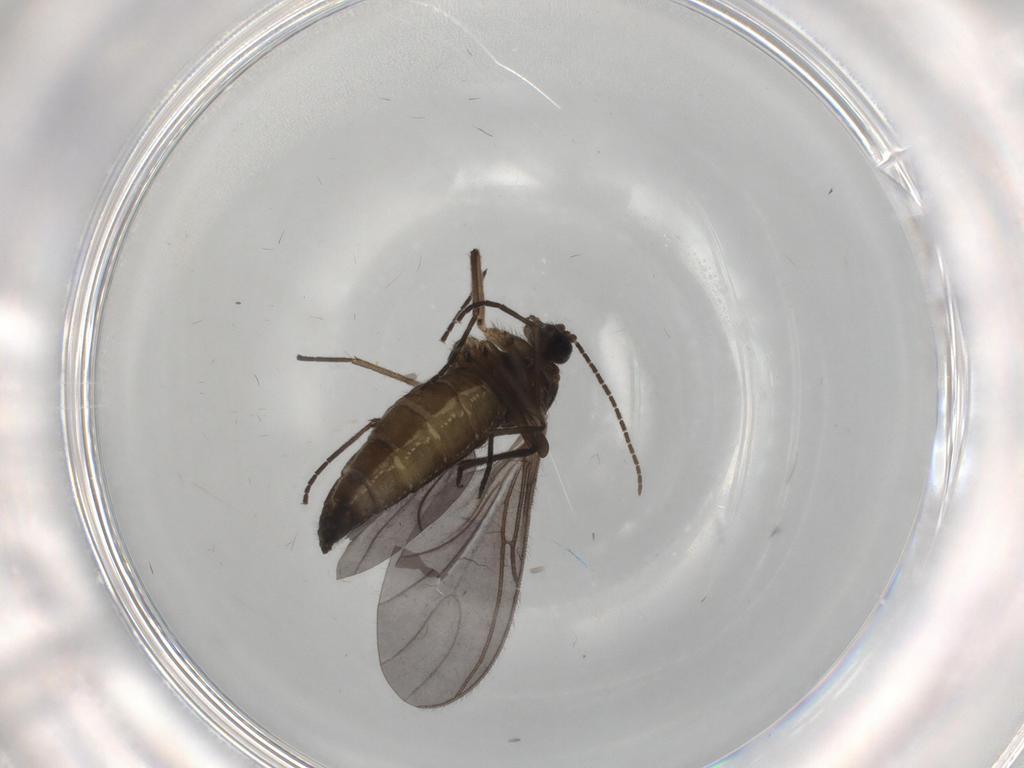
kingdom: Animalia
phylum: Arthropoda
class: Insecta
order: Diptera
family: Sciaridae
